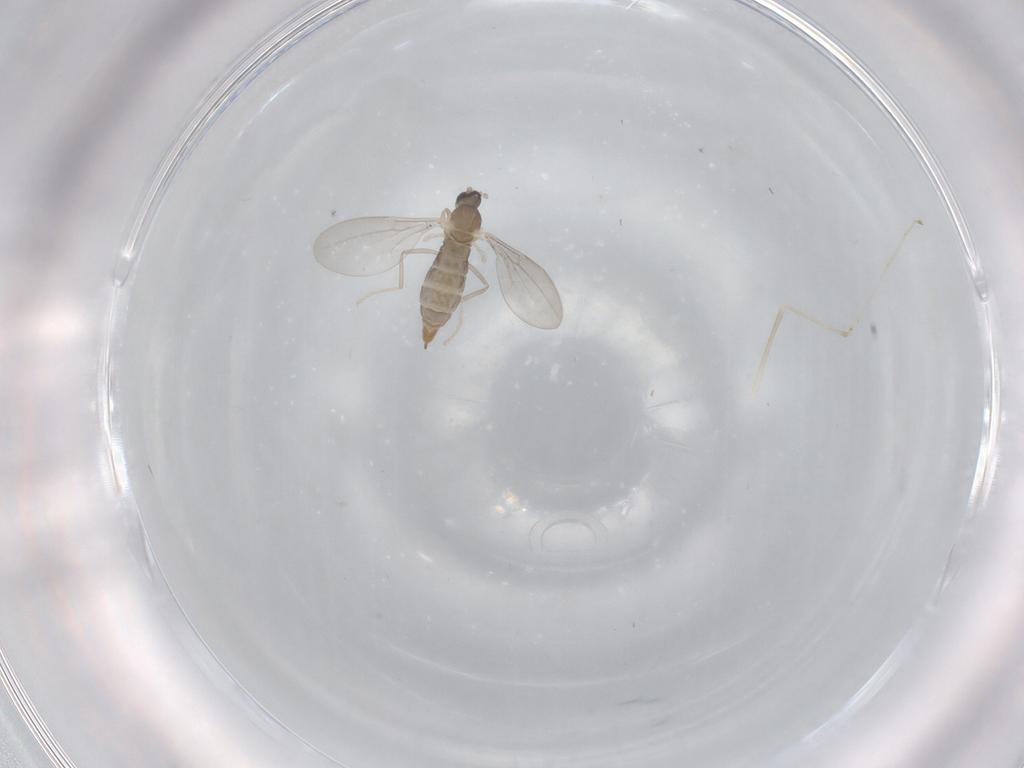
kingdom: Animalia
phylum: Arthropoda
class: Insecta
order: Diptera
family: Cecidomyiidae
